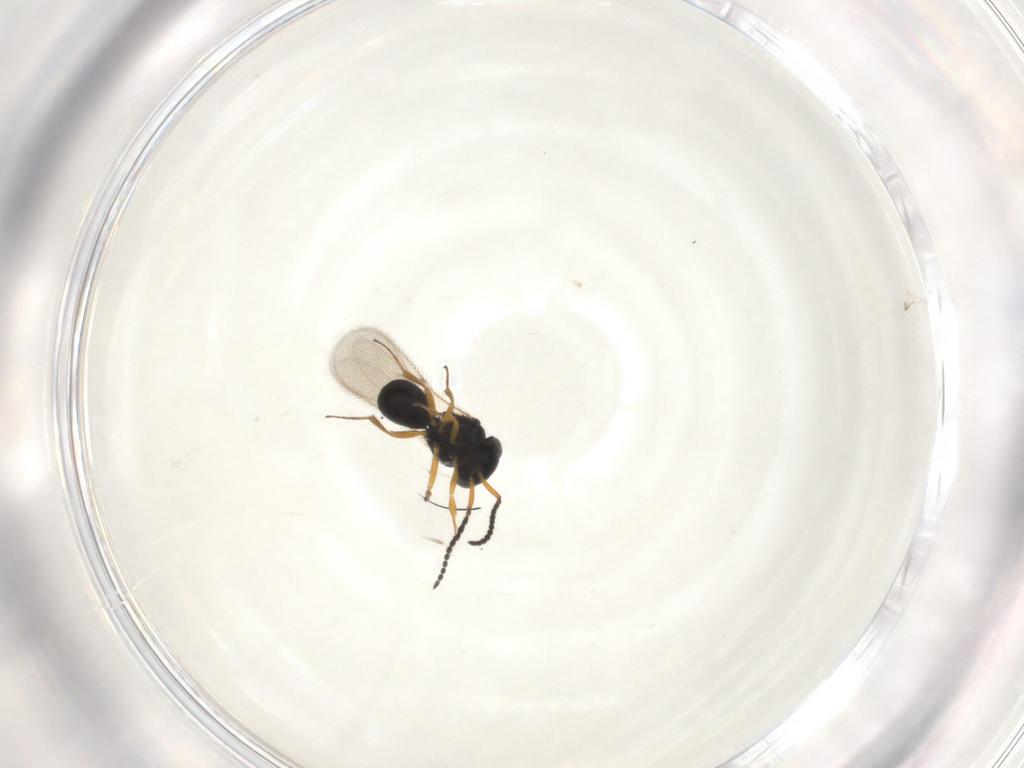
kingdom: Animalia
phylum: Arthropoda
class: Insecta
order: Hymenoptera
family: Scelionidae
